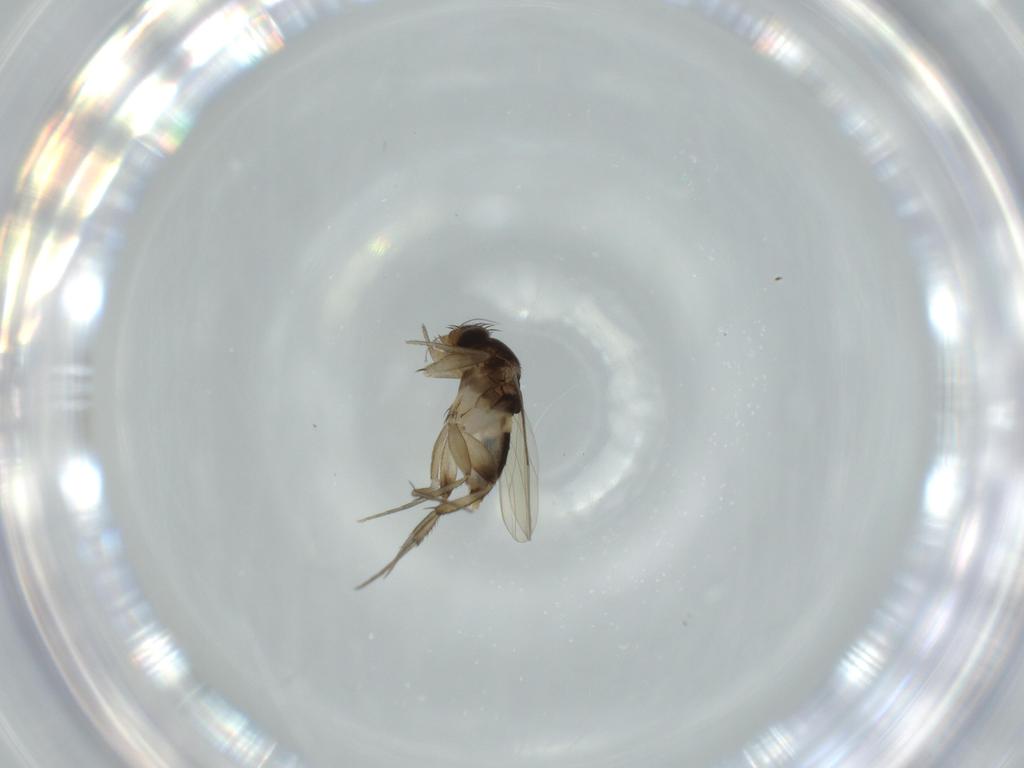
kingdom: Animalia
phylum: Arthropoda
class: Insecta
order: Diptera
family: Phoridae
